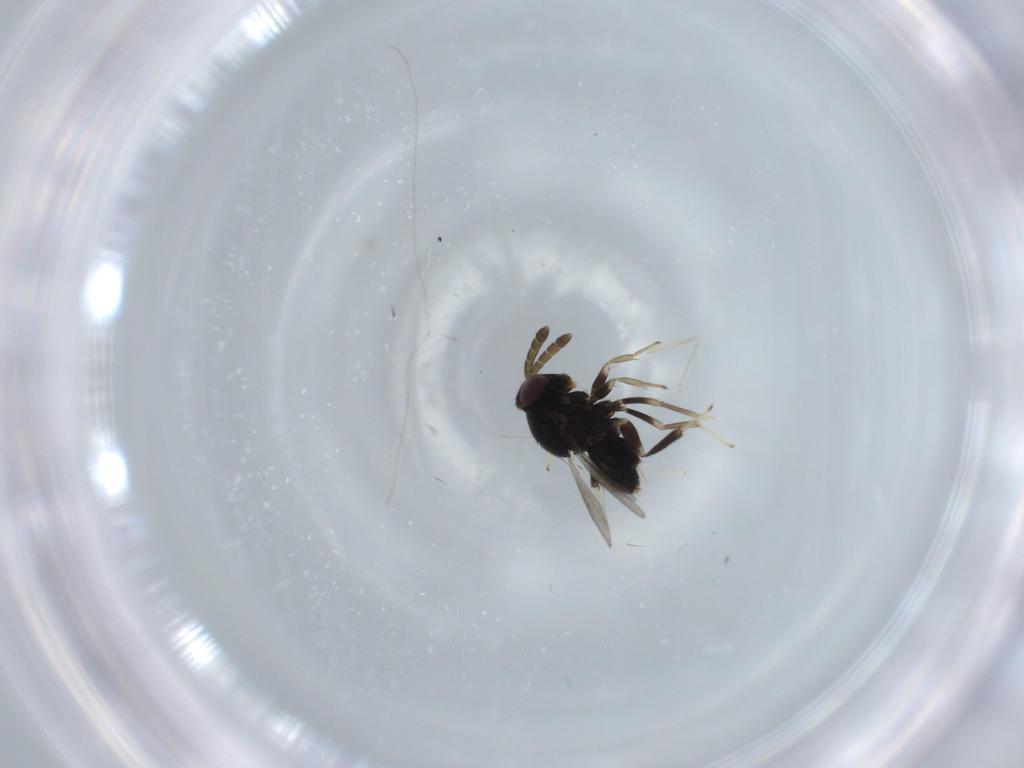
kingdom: Animalia
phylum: Arthropoda
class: Insecta
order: Hymenoptera
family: Aphelinidae
